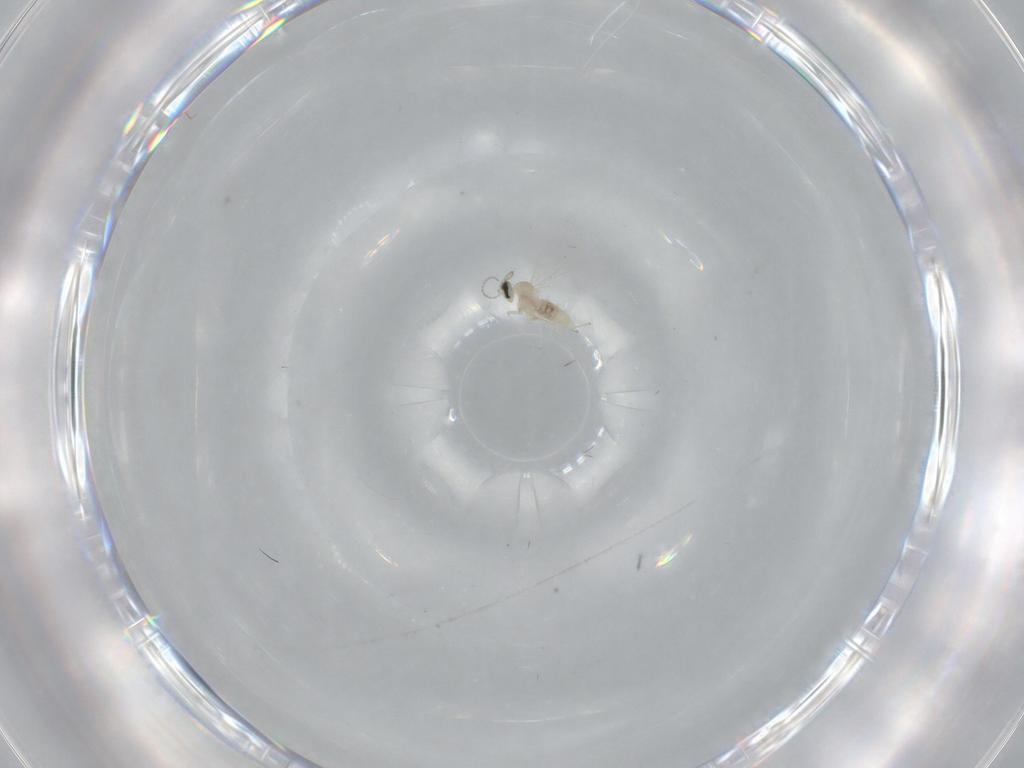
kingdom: Animalia
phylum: Arthropoda
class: Insecta
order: Diptera
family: Cecidomyiidae
